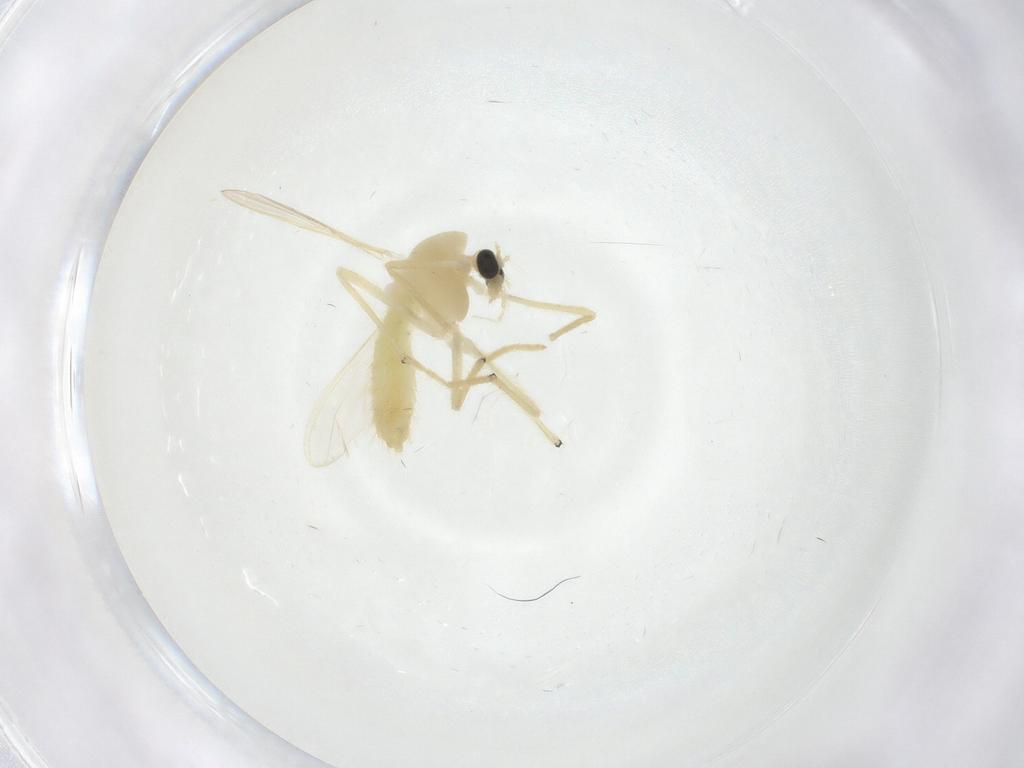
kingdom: Animalia
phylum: Arthropoda
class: Insecta
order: Diptera
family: Chironomidae
